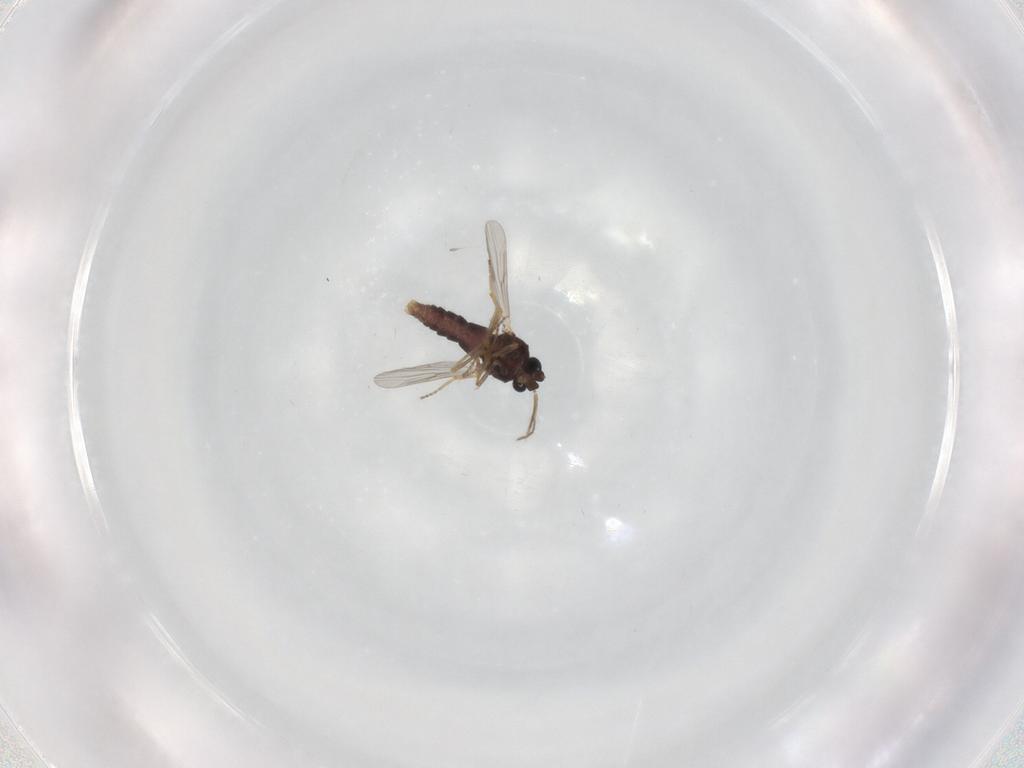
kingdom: Animalia
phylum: Arthropoda
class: Insecta
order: Diptera
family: Ceratopogonidae
